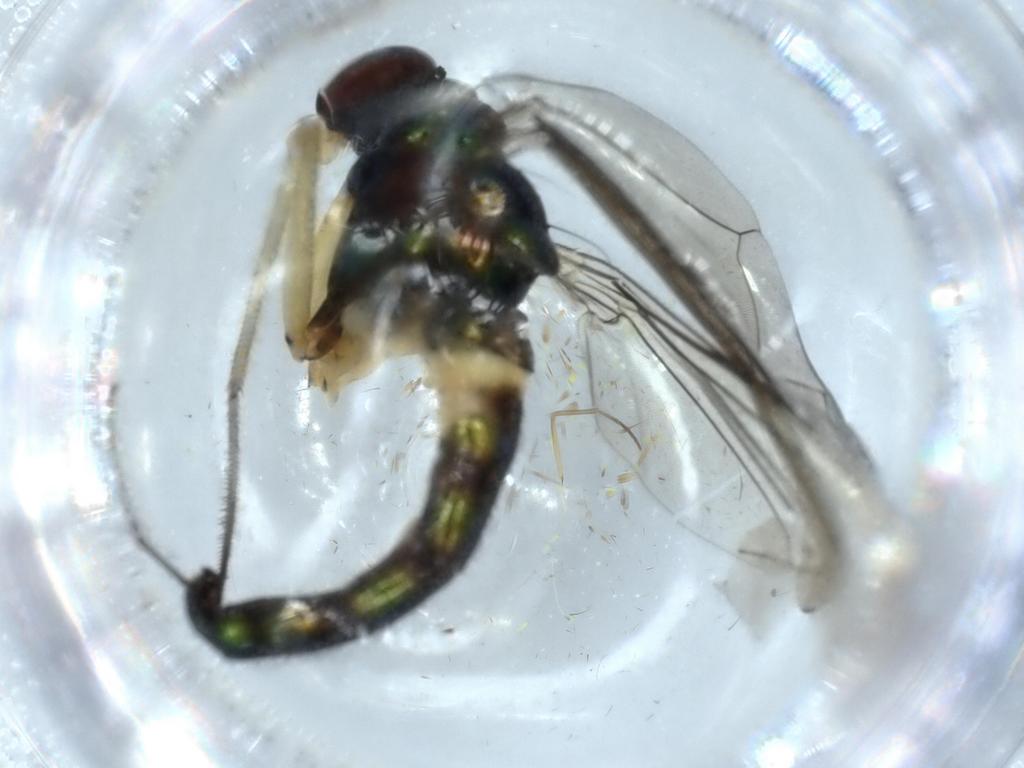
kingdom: Animalia
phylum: Arthropoda
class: Insecta
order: Diptera
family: Dolichopodidae
